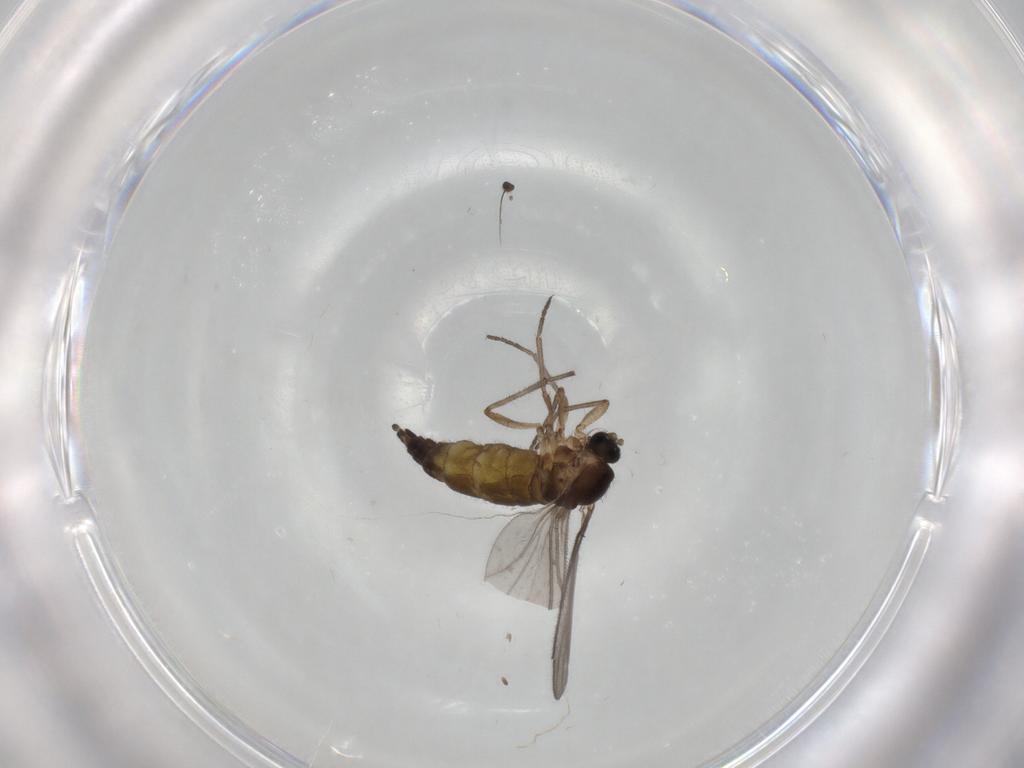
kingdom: Animalia
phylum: Arthropoda
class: Insecta
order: Diptera
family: Sciaridae
